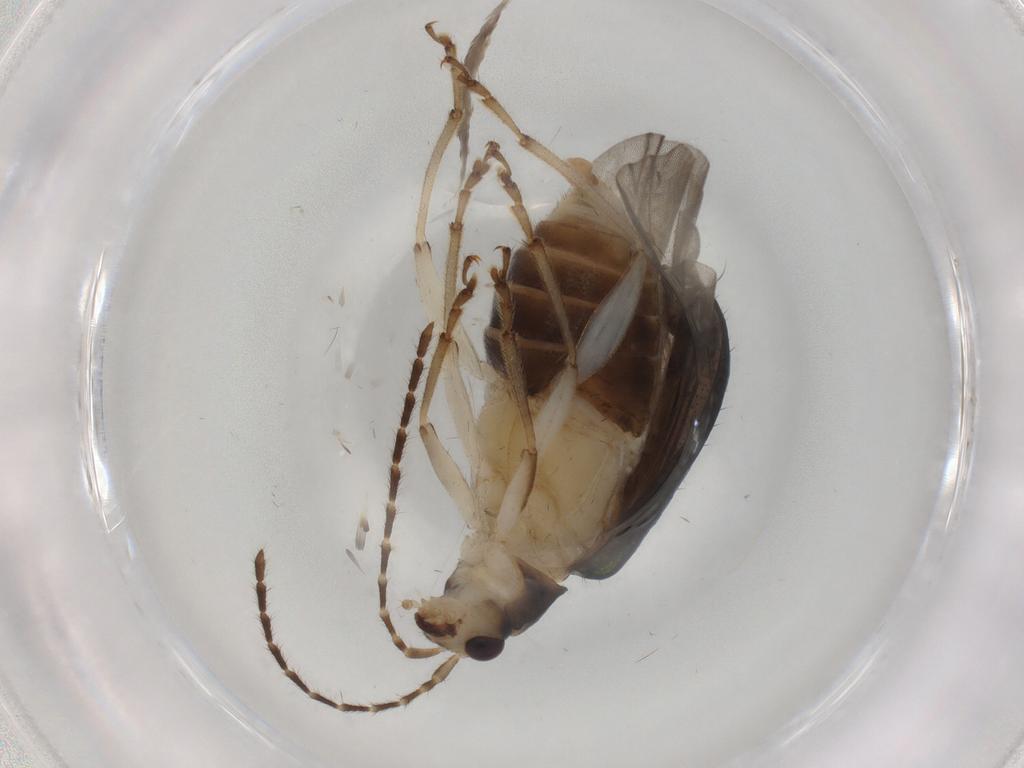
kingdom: Animalia
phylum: Arthropoda
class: Insecta
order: Coleoptera
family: Chrysomelidae
